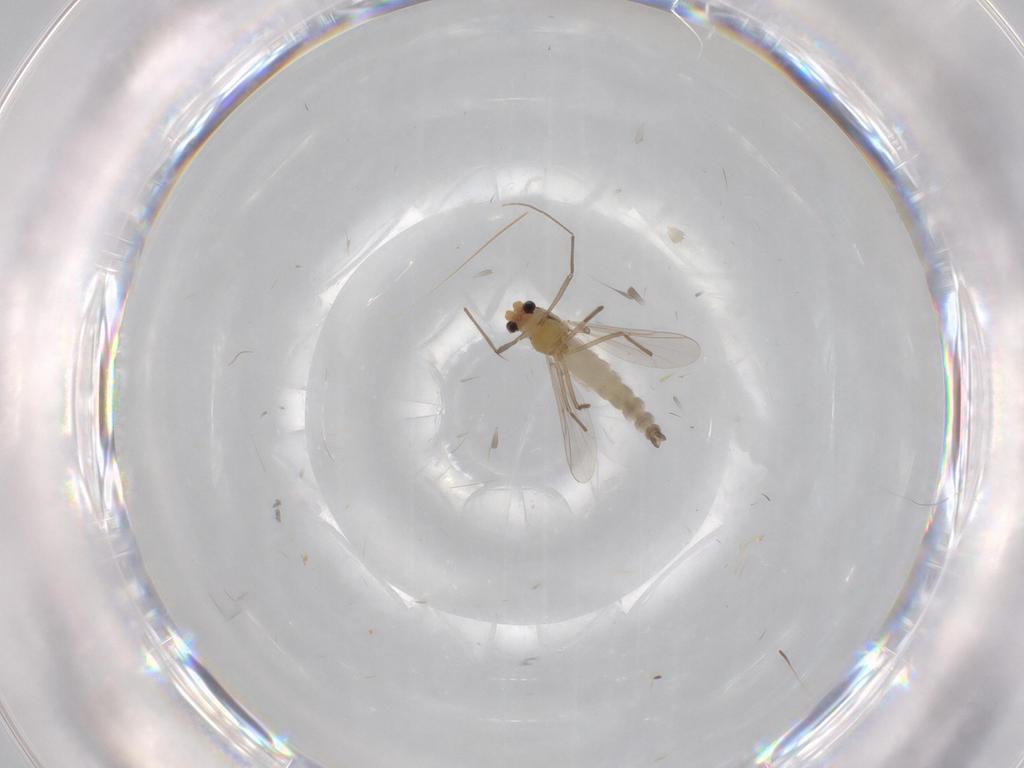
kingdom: Animalia
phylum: Arthropoda
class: Insecta
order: Diptera
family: Chironomidae
